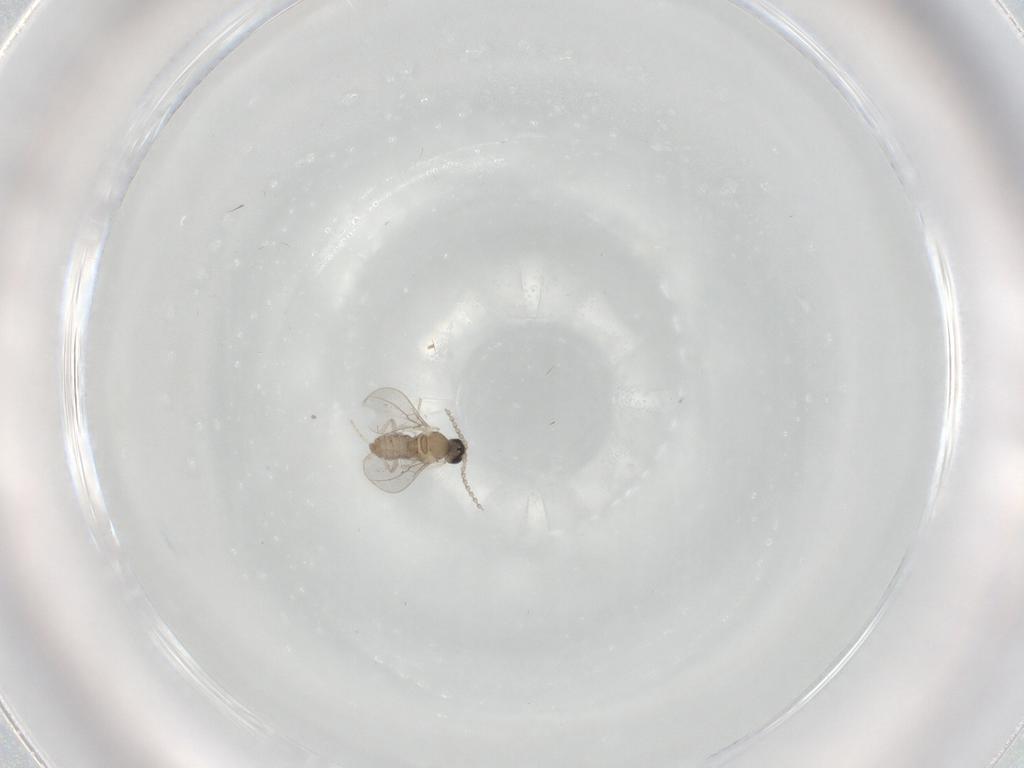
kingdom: Animalia
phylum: Arthropoda
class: Insecta
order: Diptera
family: Cecidomyiidae
